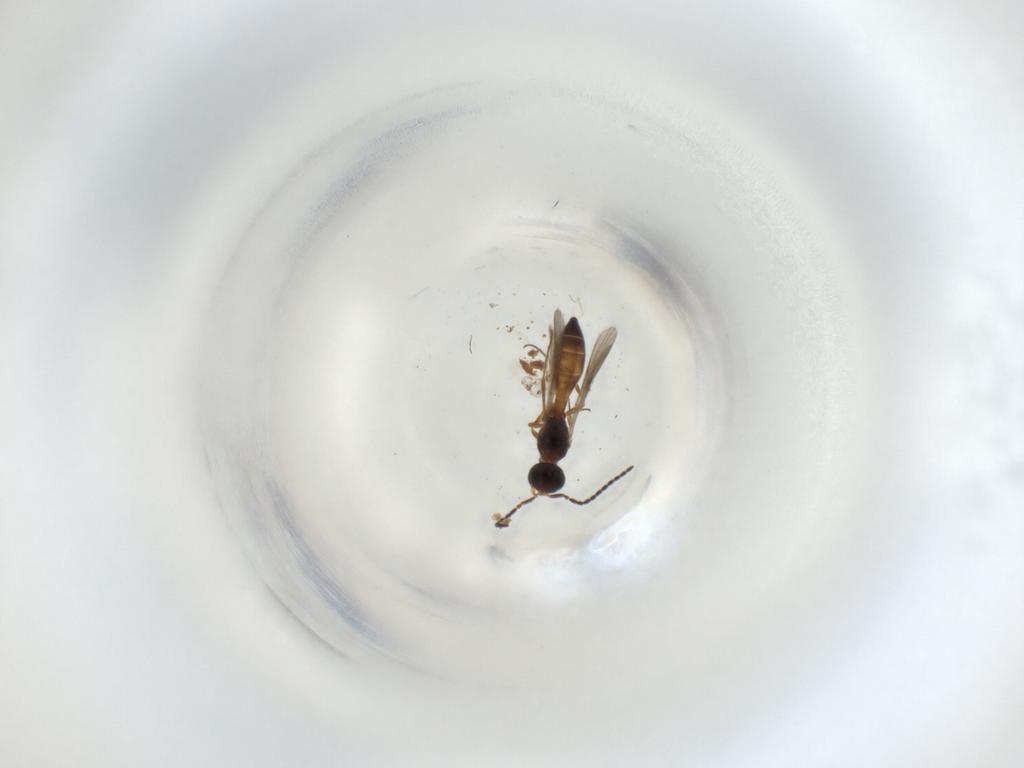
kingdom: Animalia
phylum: Arthropoda
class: Insecta
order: Hymenoptera
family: Scelionidae
